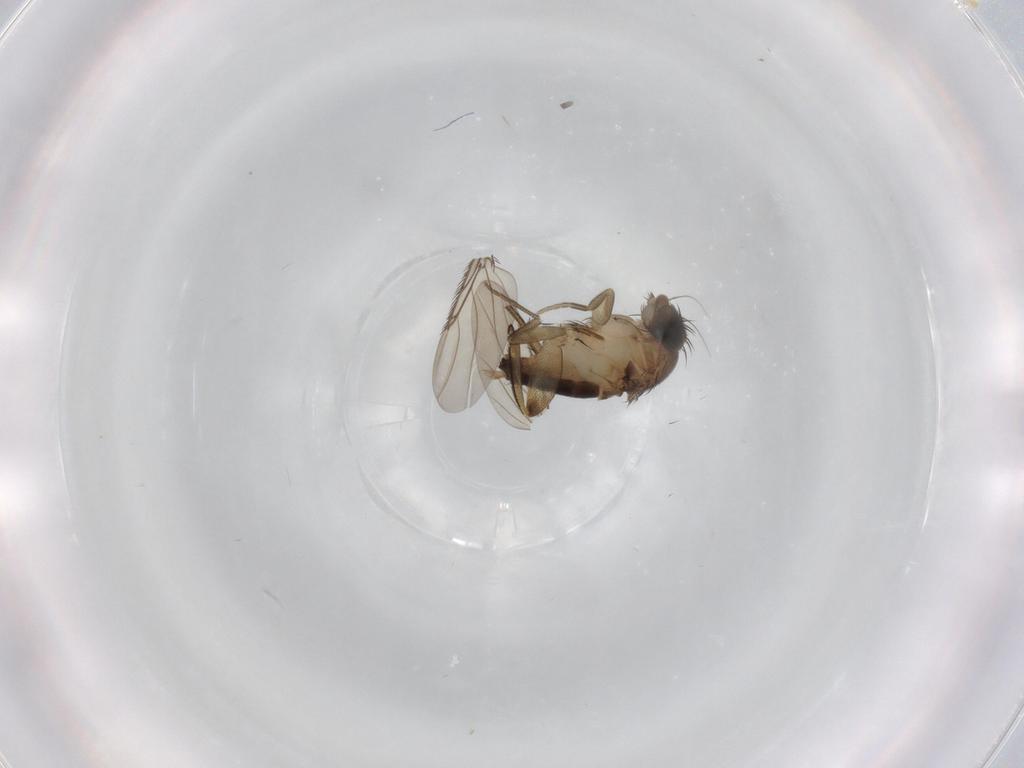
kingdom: Animalia
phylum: Arthropoda
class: Insecta
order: Diptera
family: Phoridae
